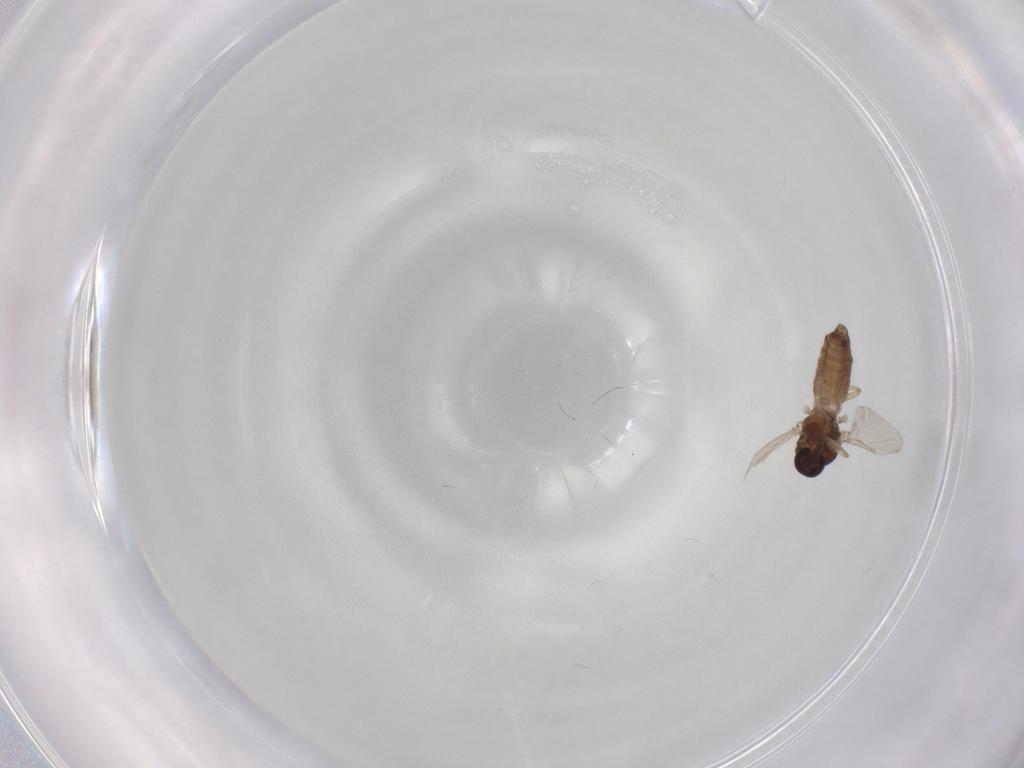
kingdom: Animalia
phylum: Arthropoda
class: Insecta
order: Diptera
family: Ceratopogonidae
